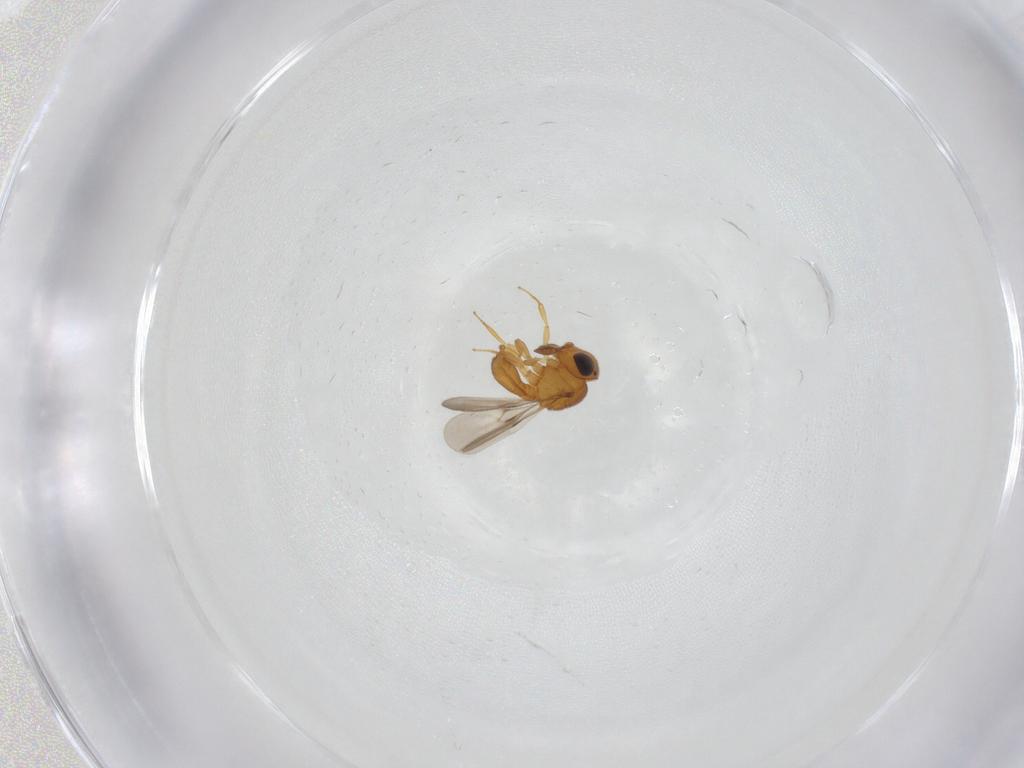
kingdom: Animalia
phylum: Arthropoda
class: Insecta
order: Hymenoptera
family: Scelionidae
